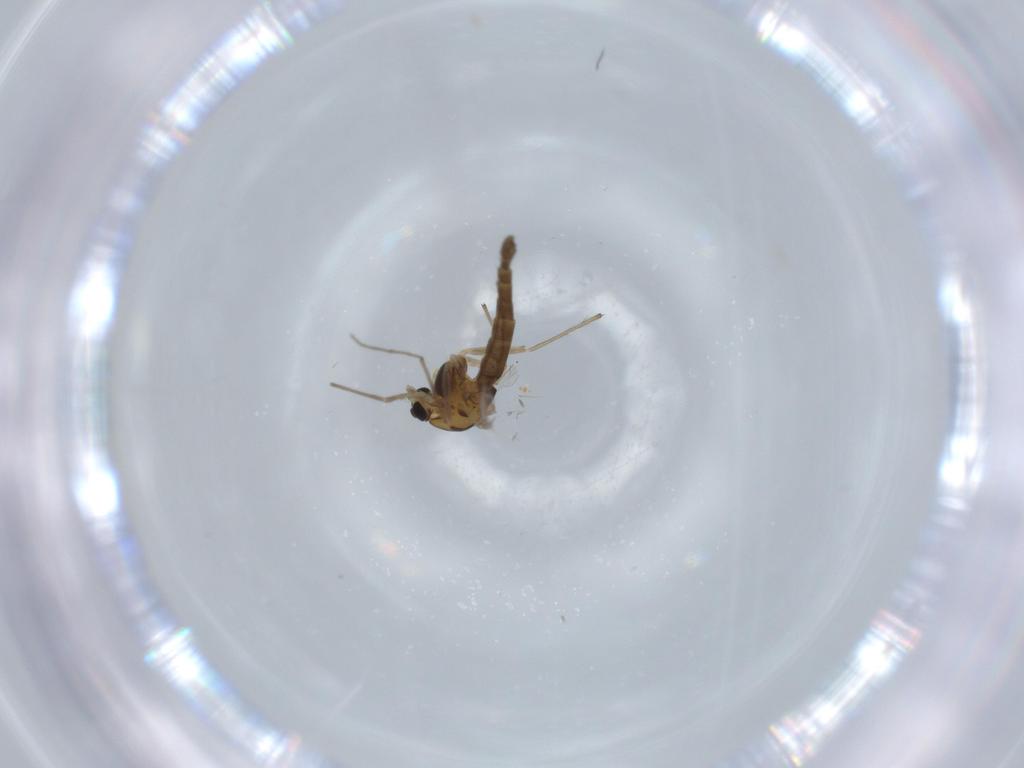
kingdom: Animalia
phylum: Arthropoda
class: Insecta
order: Diptera
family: Chironomidae
